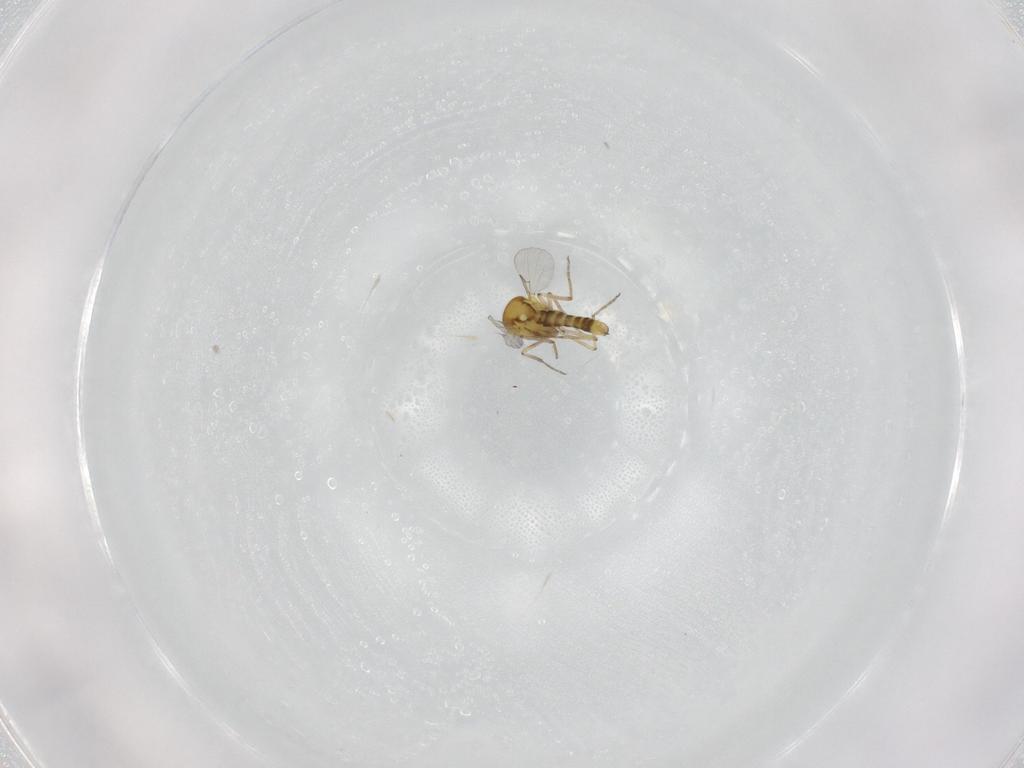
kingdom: Animalia
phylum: Arthropoda
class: Insecta
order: Diptera
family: Ceratopogonidae
